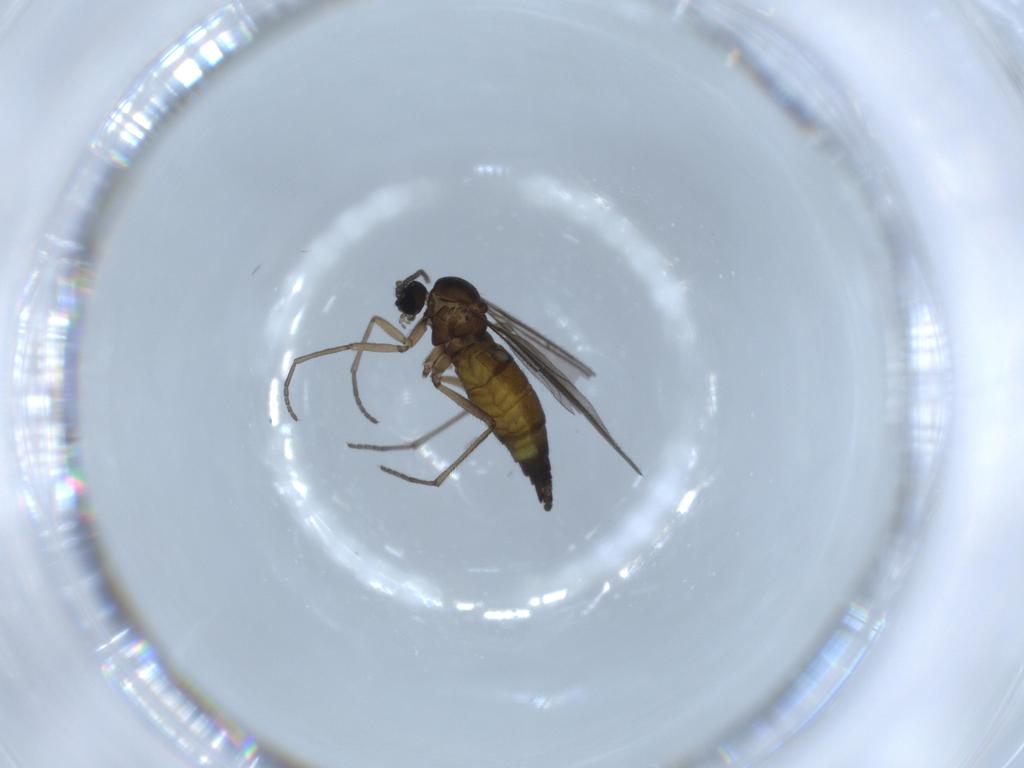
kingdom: Animalia
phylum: Arthropoda
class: Insecta
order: Diptera
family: Sciaridae
